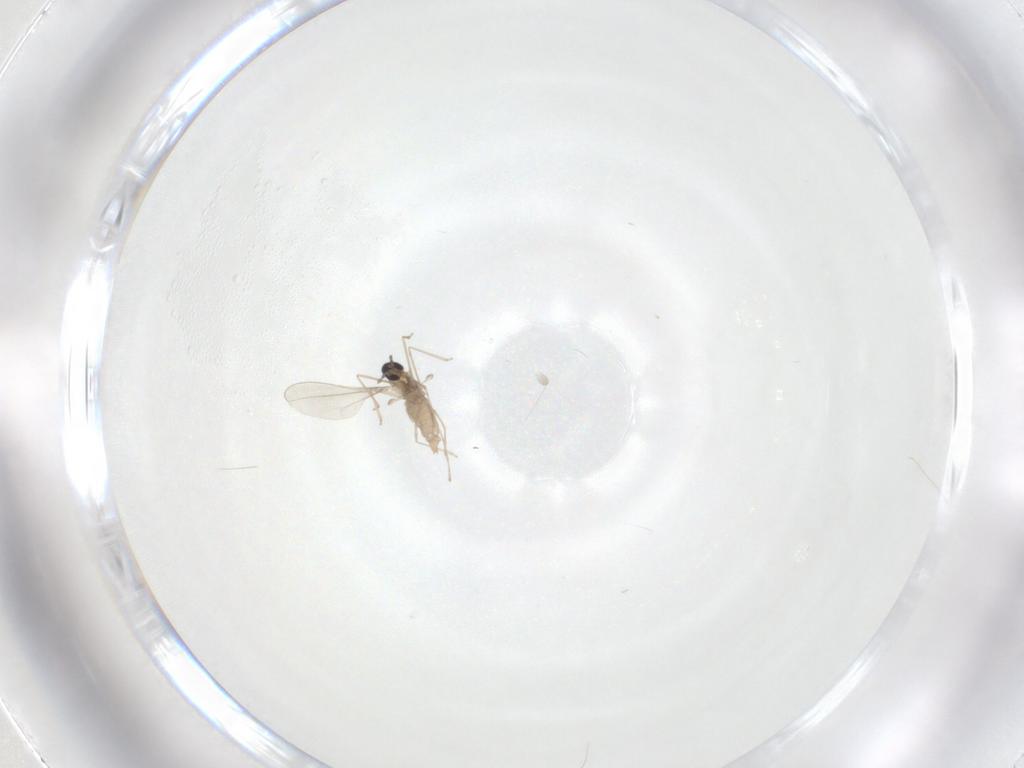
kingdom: Animalia
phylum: Arthropoda
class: Insecta
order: Diptera
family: Cecidomyiidae
